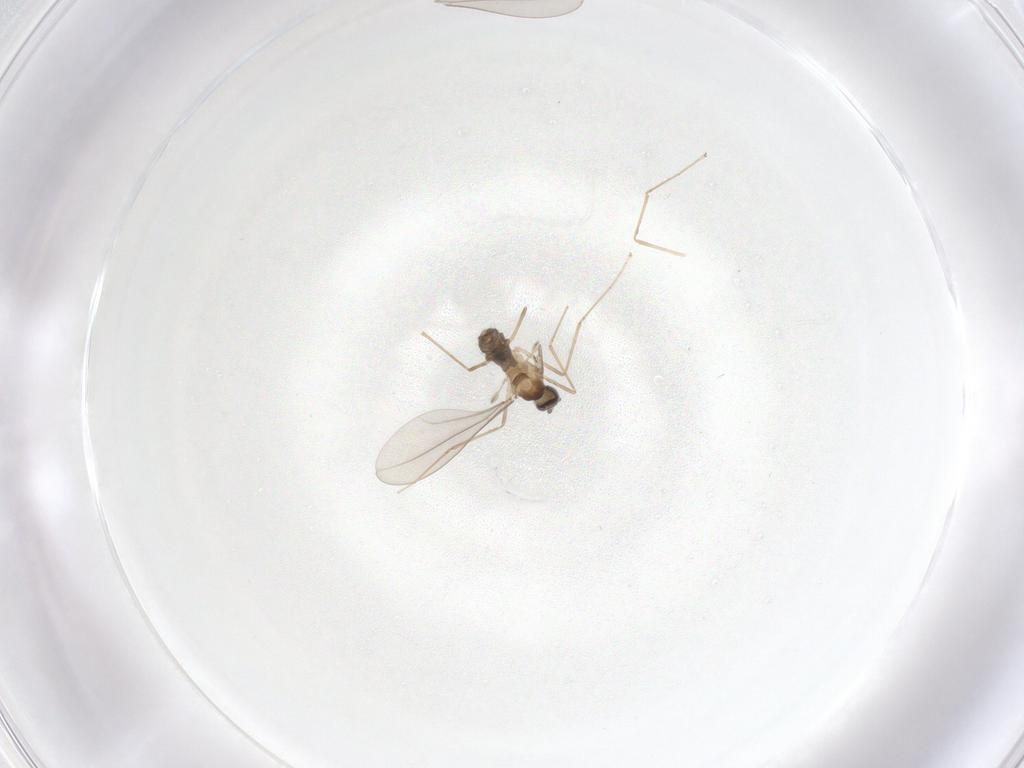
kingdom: Animalia
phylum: Arthropoda
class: Insecta
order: Diptera
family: Cecidomyiidae
